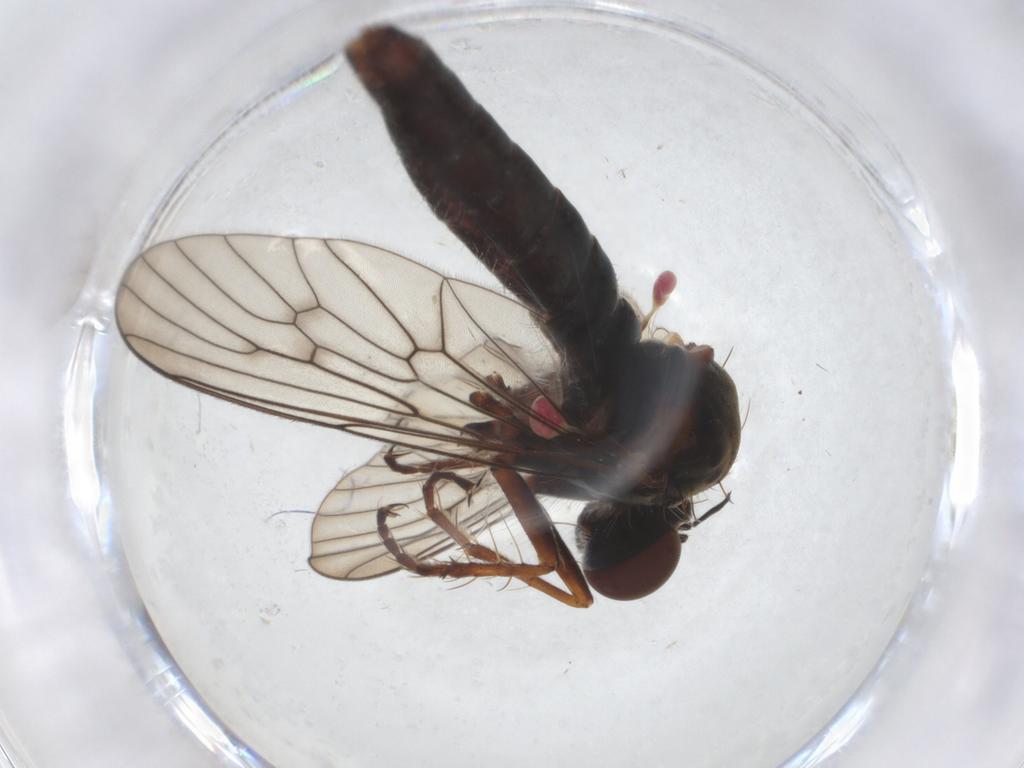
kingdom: Animalia
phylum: Arthropoda
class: Insecta
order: Diptera
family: Asilidae
